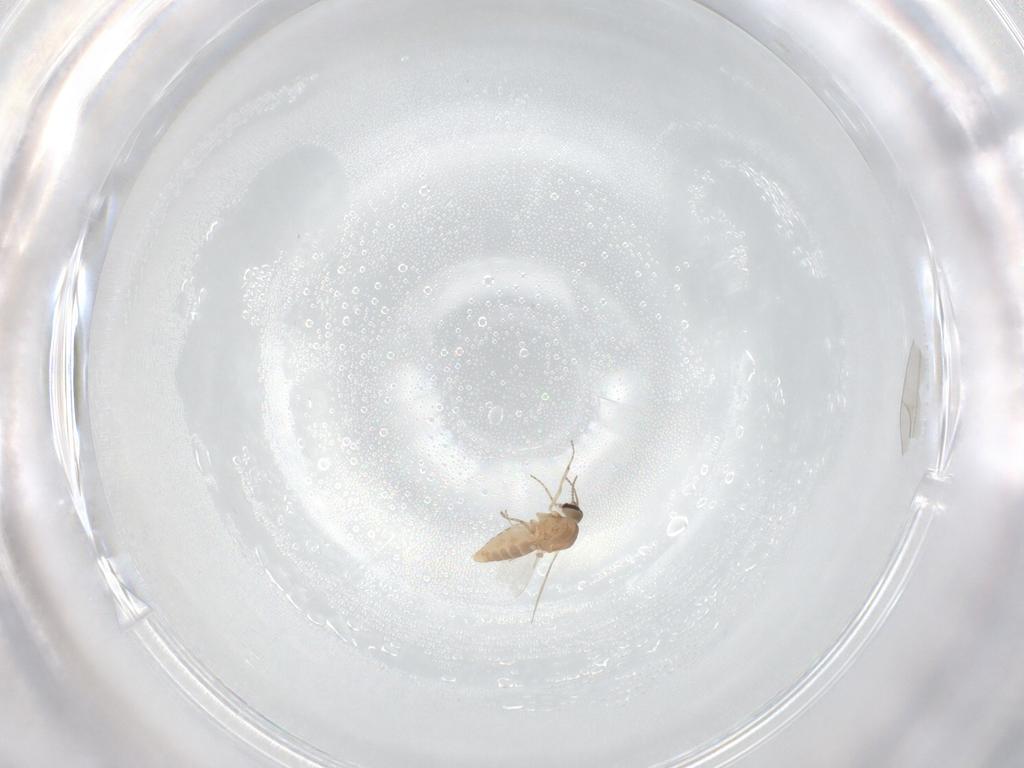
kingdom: Animalia
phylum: Arthropoda
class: Insecta
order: Diptera
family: Ceratopogonidae
